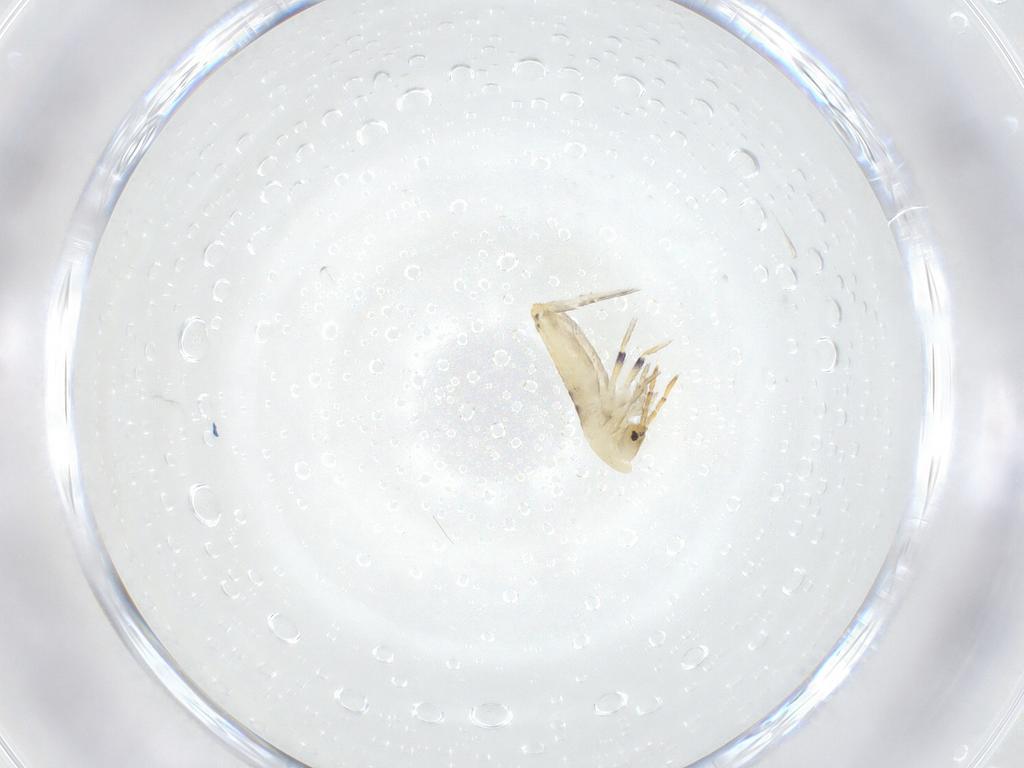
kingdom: Animalia
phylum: Arthropoda
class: Collembola
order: Entomobryomorpha
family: Entomobryidae
